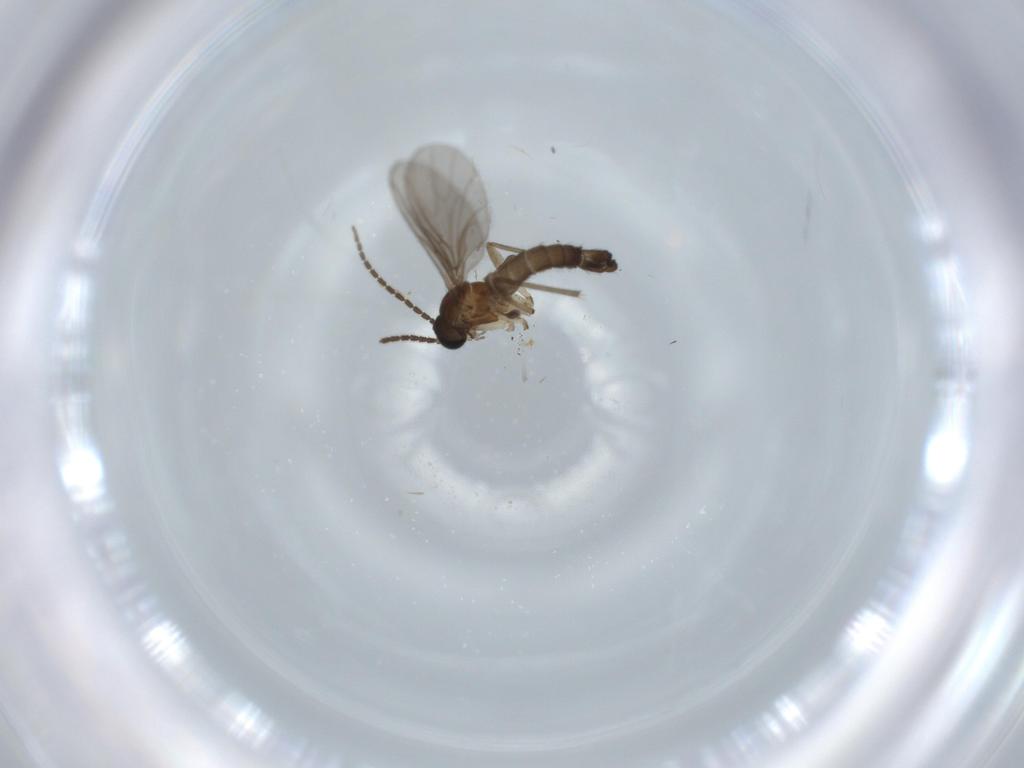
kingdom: Animalia
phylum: Arthropoda
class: Insecta
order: Diptera
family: Sciaridae
